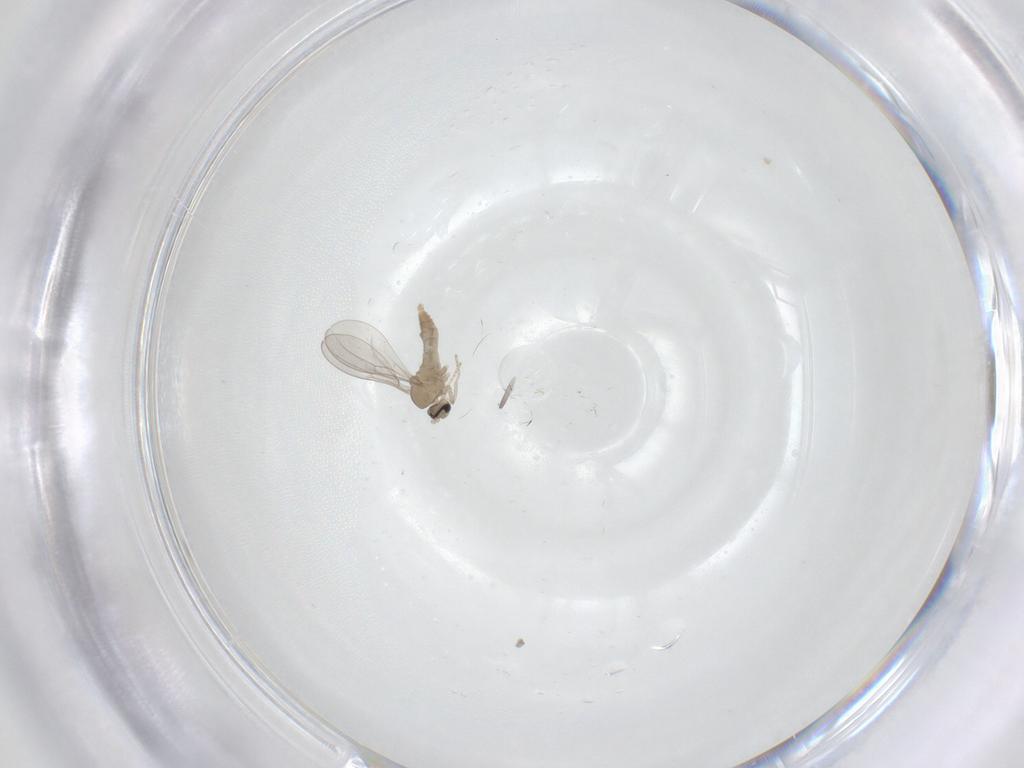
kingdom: Animalia
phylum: Arthropoda
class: Insecta
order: Diptera
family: Cecidomyiidae
